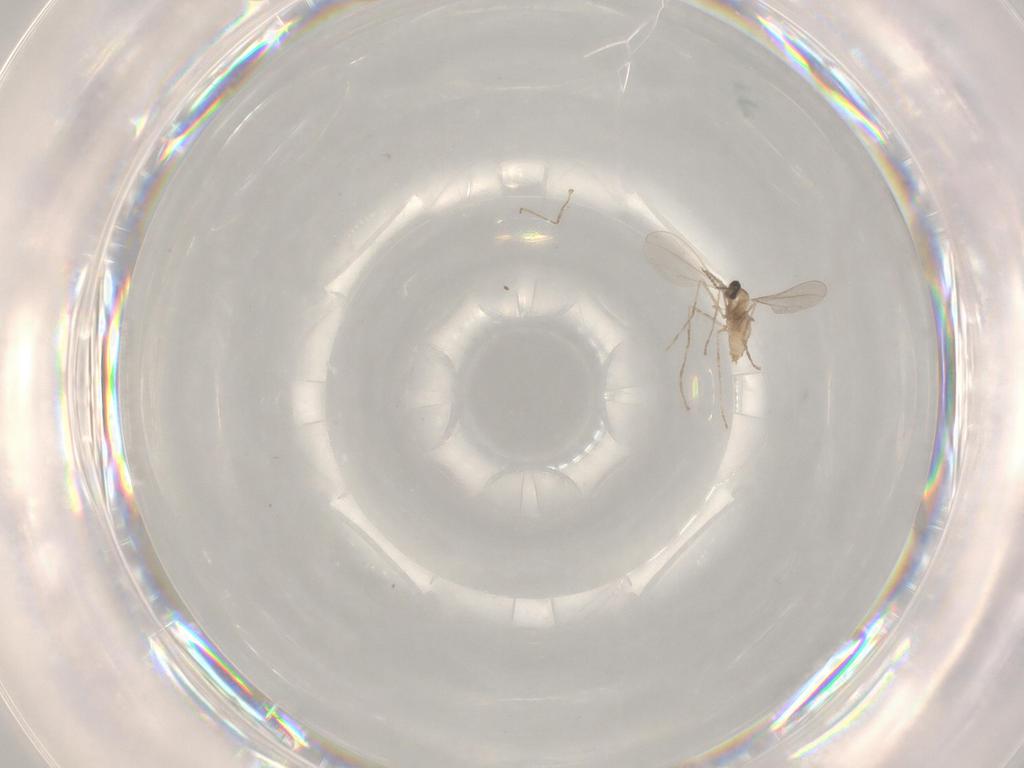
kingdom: Animalia
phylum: Arthropoda
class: Insecta
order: Diptera
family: Cecidomyiidae
